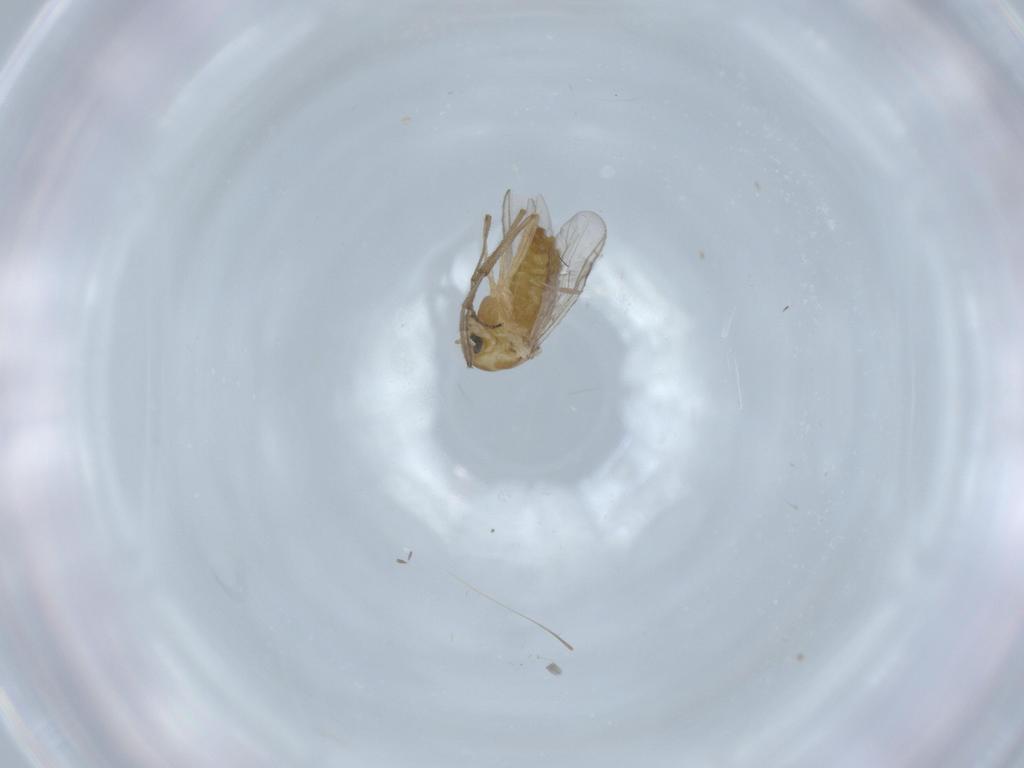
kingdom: Animalia
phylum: Arthropoda
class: Insecta
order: Diptera
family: Chironomidae
